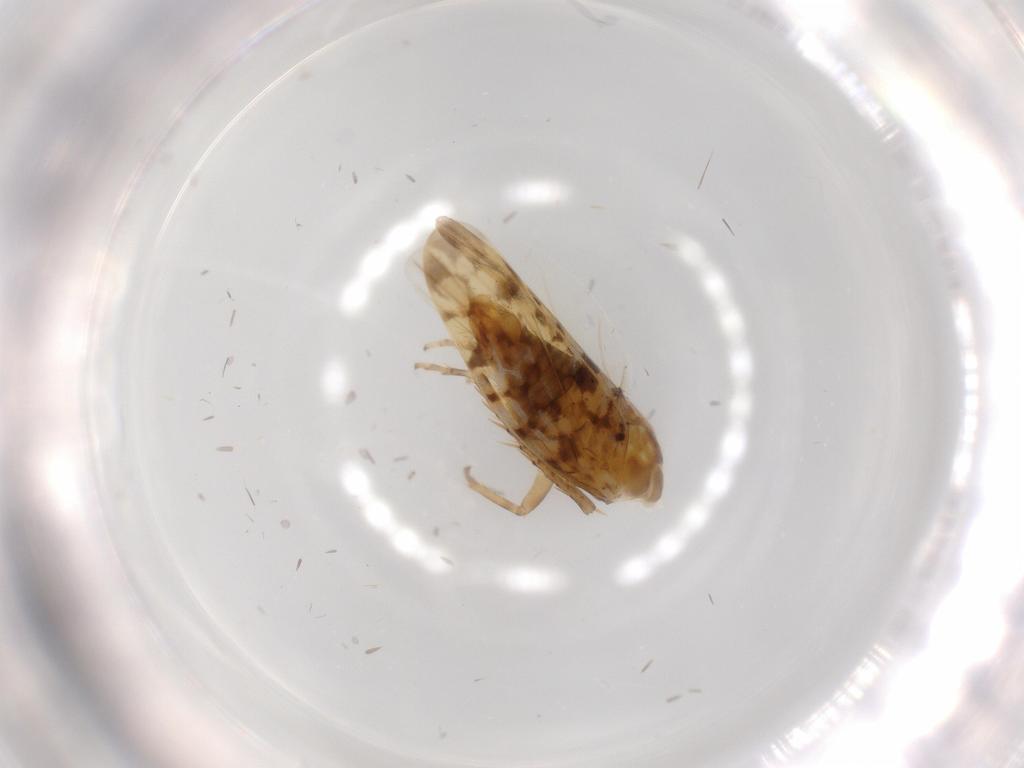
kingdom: Animalia
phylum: Arthropoda
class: Insecta
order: Hemiptera
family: Cicadellidae
